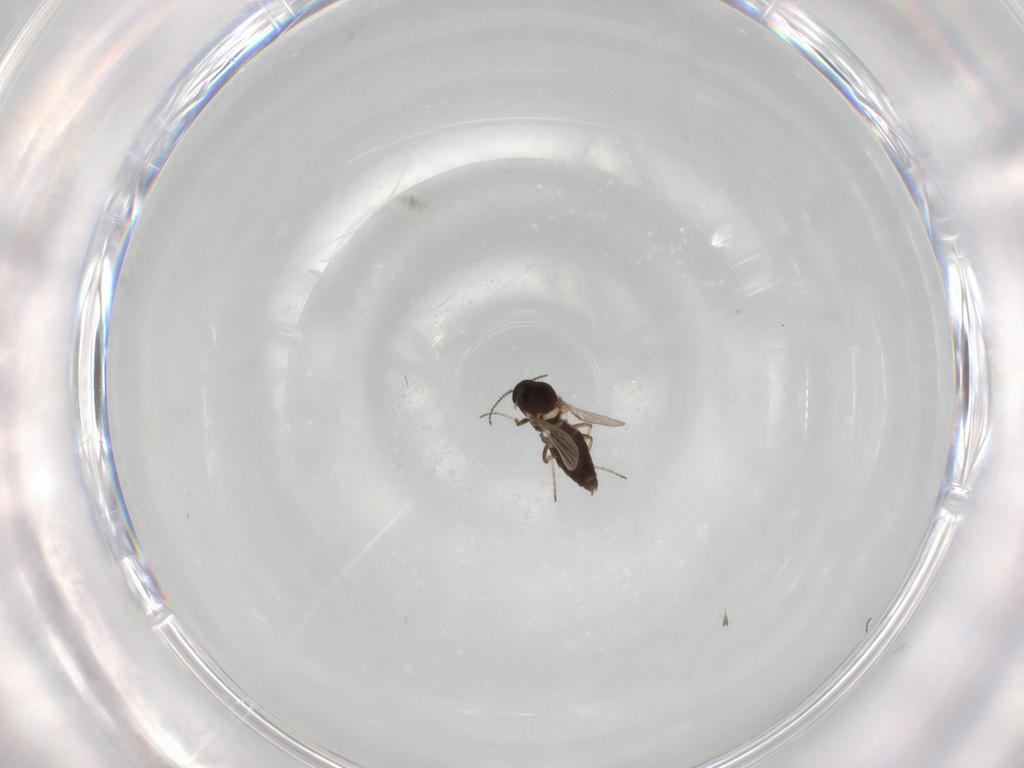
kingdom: Animalia
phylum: Arthropoda
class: Insecta
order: Diptera
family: Ceratopogonidae
